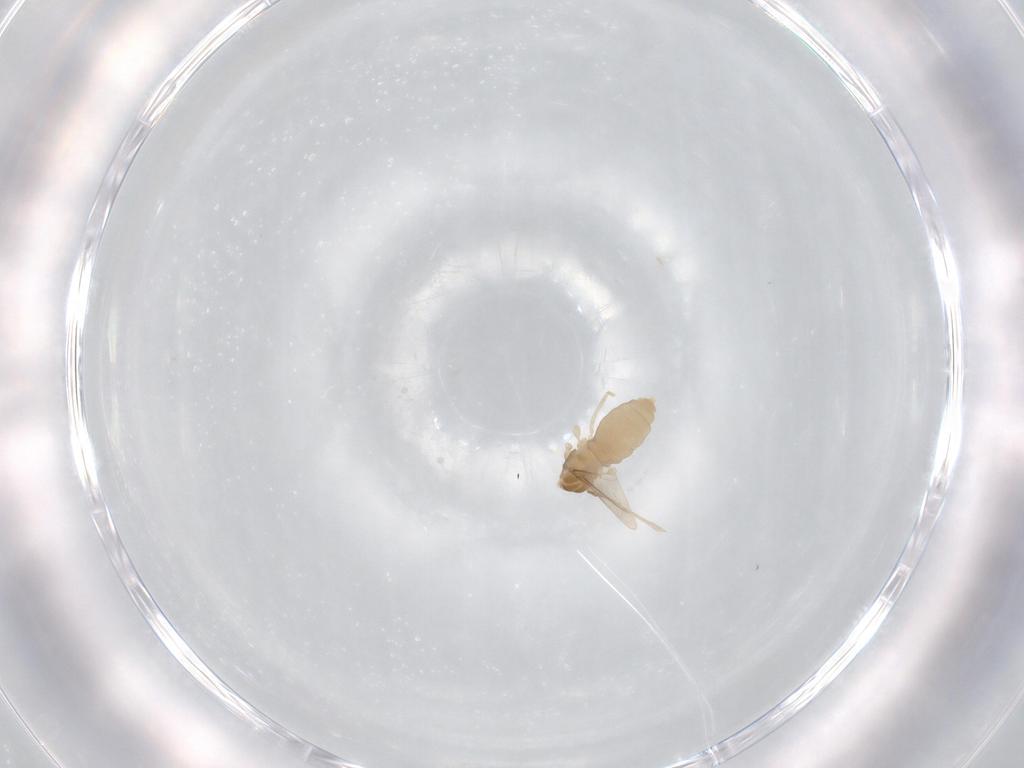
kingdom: Animalia
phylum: Arthropoda
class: Insecta
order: Diptera
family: Cecidomyiidae
